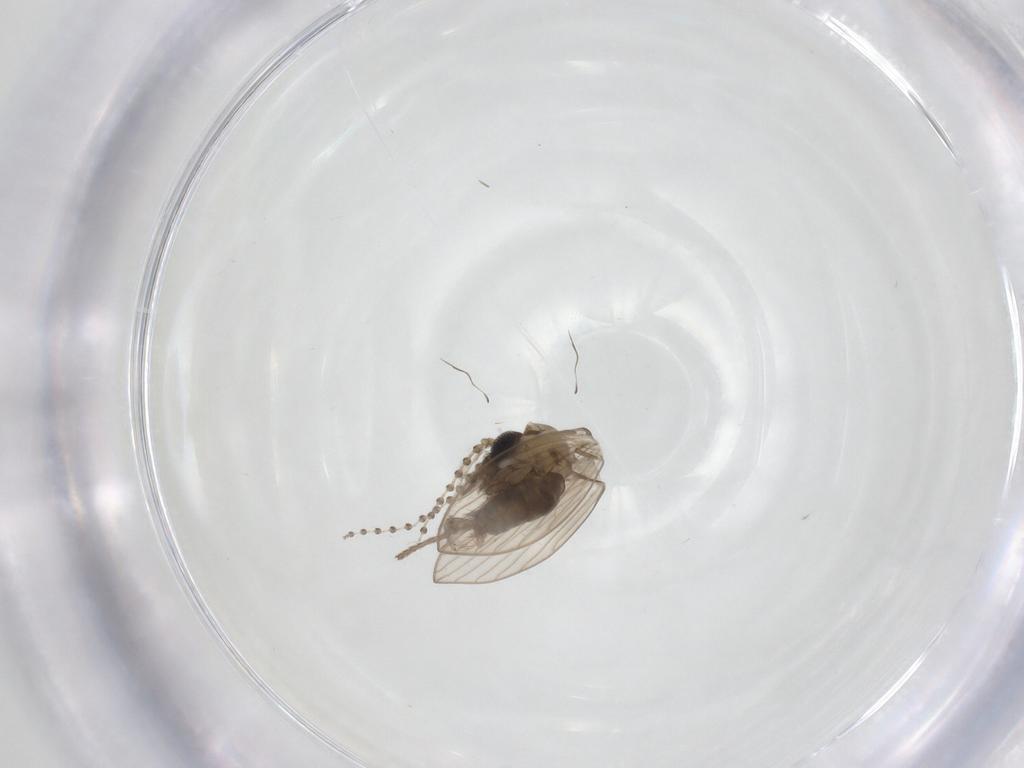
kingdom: Animalia
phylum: Arthropoda
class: Insecta
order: Diptera
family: Psychodidae
